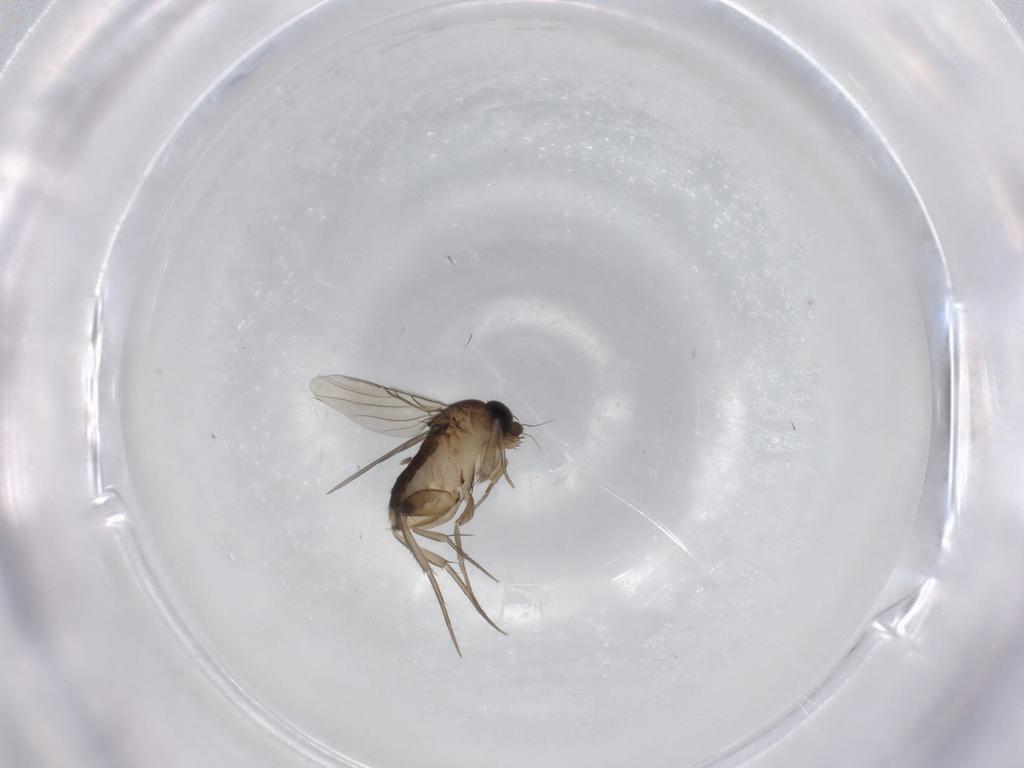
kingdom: Animalia
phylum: Arthropoda
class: Insecta
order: Diptera
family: Phoridae
